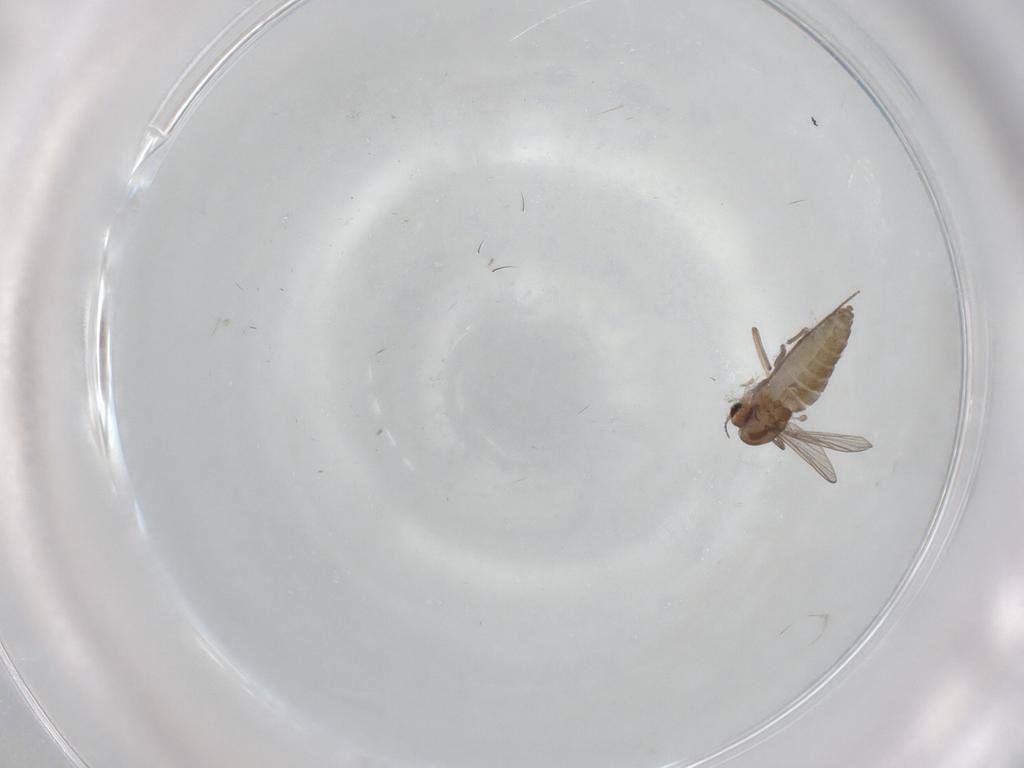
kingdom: Animalia
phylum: Arthropoda
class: Insecta
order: Diptera
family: Chironomidae
